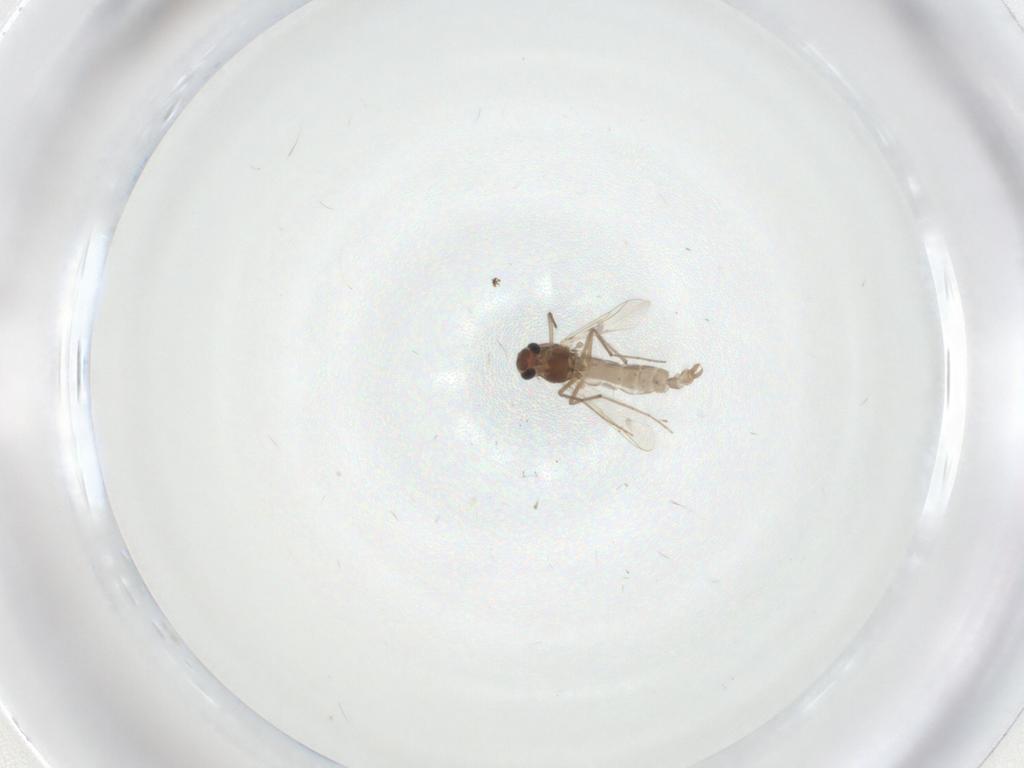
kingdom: Animalia
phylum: Arthropoda
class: Insecta
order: Diptera
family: Chironomidae
